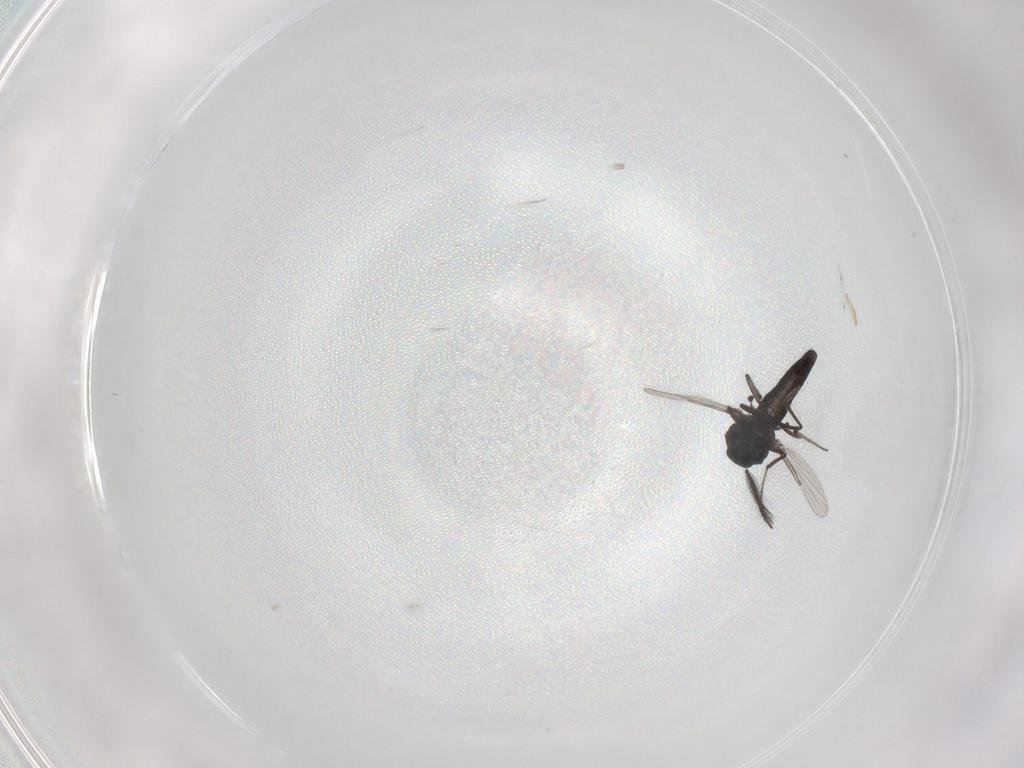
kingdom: Animalia
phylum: Arthropoda
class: Insecta
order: Diptera
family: Ceratopogonidae
